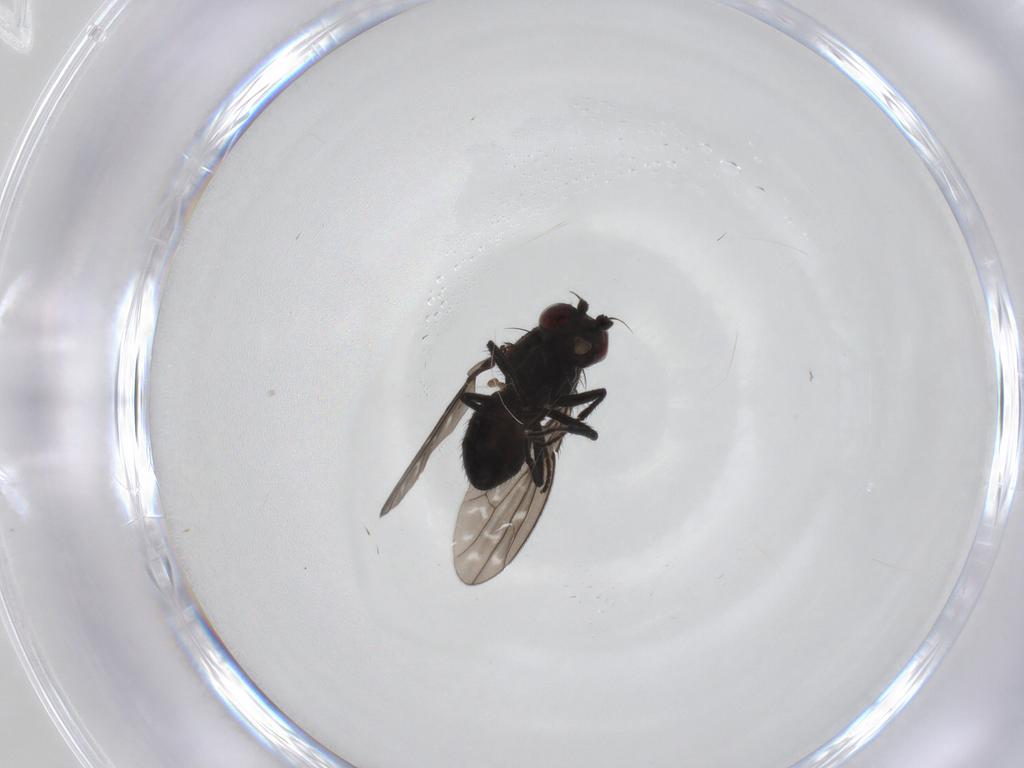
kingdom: Animalia
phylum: Arthropoda
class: Insecta
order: Diptera
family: Ephydridae
